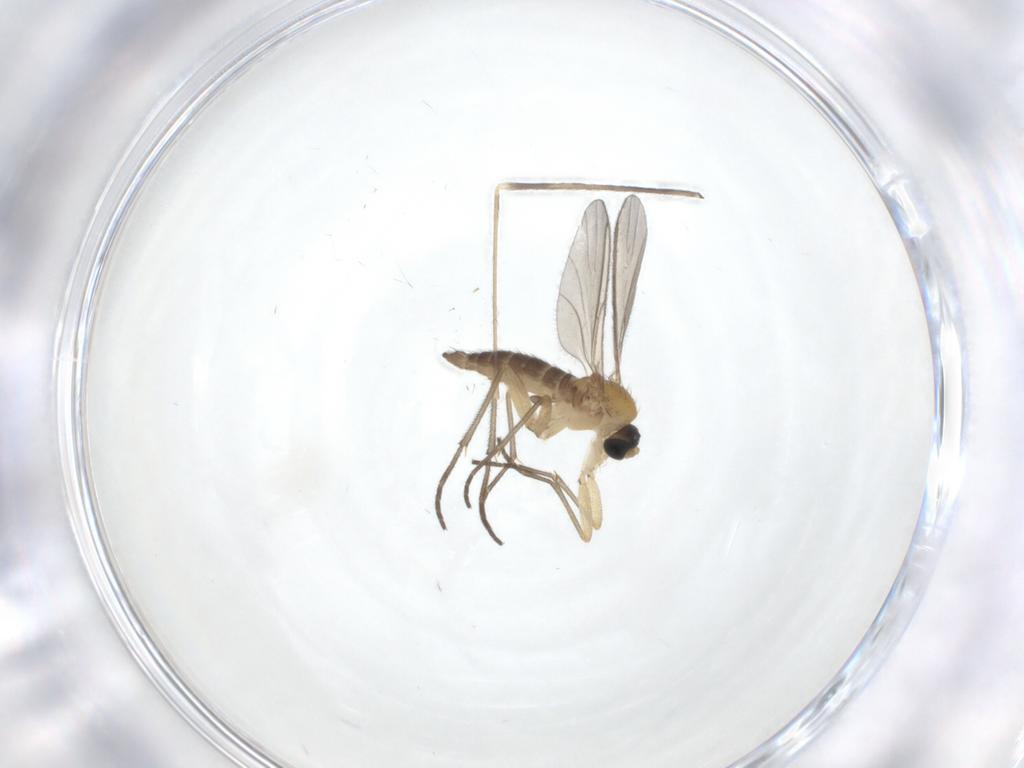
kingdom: Animalia
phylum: Arthropoda
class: Insecta
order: Diptera
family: Limoniidae
